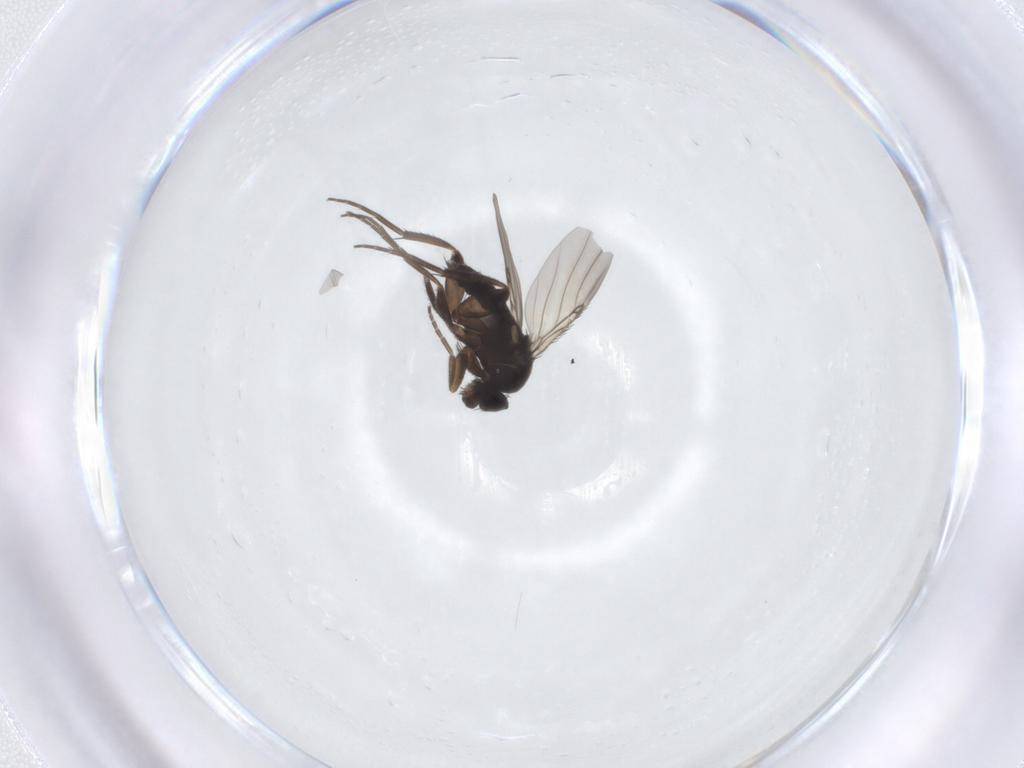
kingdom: Animalia
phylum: Arthropoda
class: Insecta
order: Diptera
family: Phoridae
